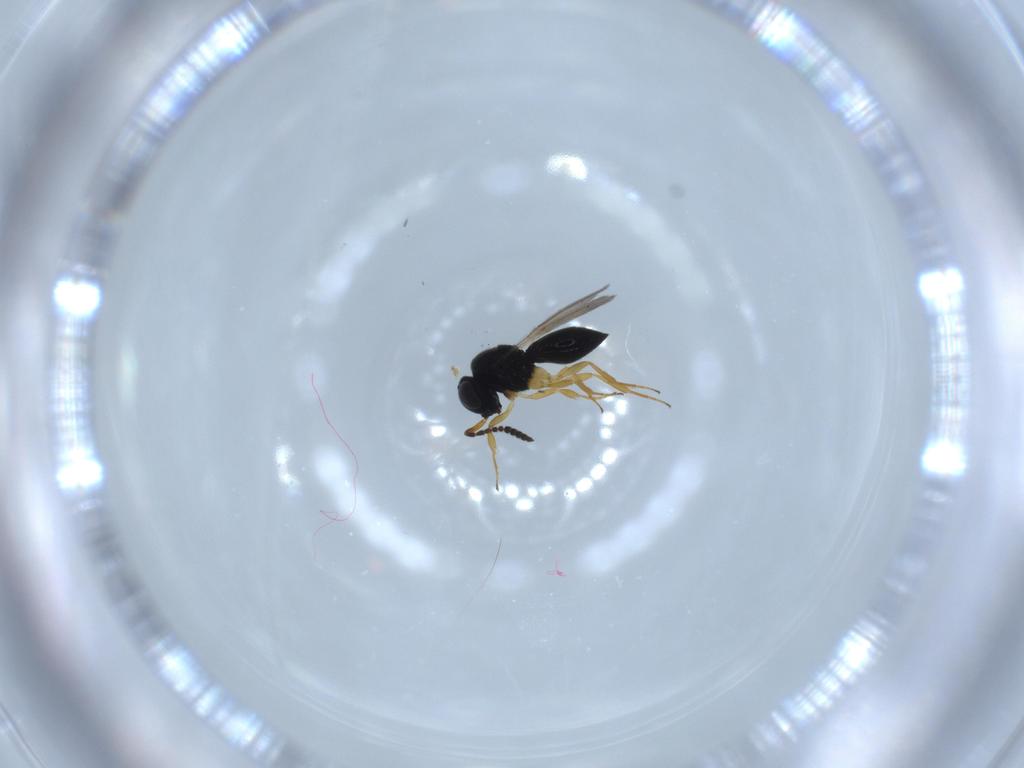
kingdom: Animalia
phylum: Arthropoda
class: Insecta
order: Hymenoptera
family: Scelionidae
